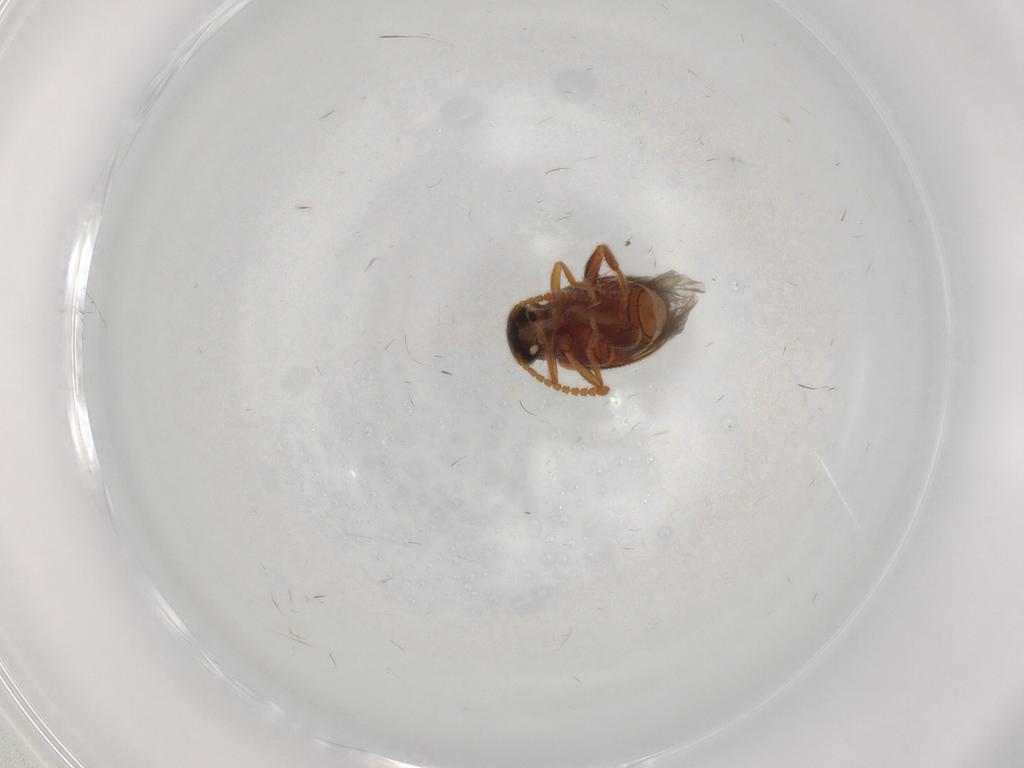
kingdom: Animalia
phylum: Arthropoda
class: Insecta
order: Coleoptera
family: Aderidae
